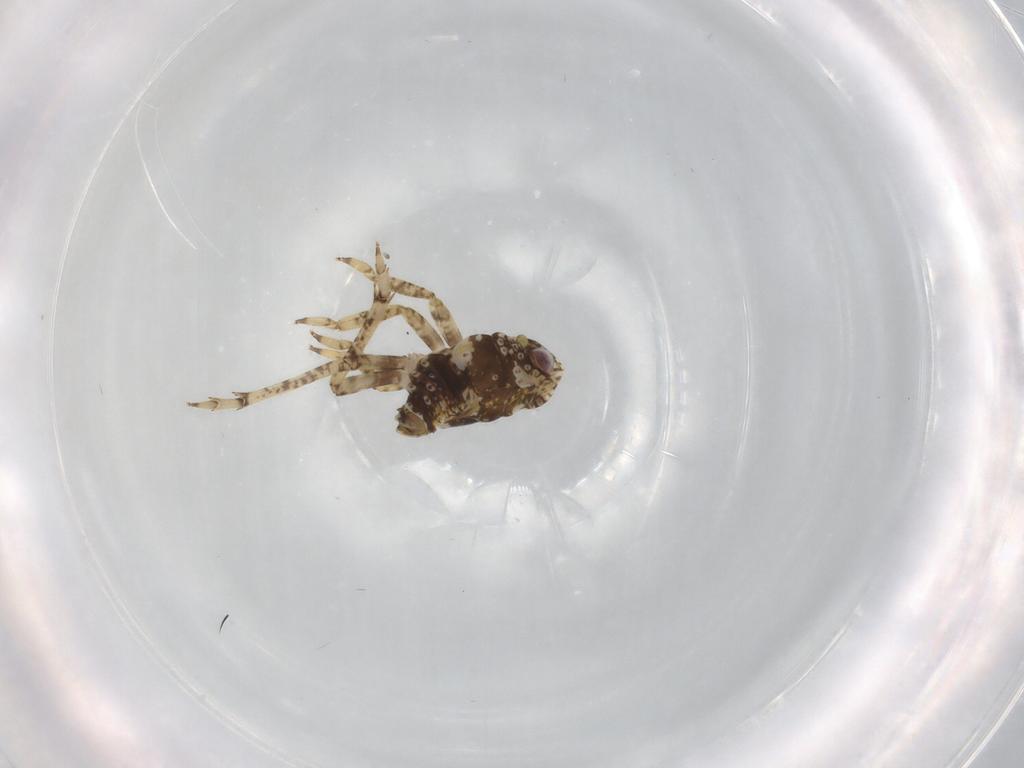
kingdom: Animalia
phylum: Arthropoda
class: Insecta
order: Hemiptera
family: Issidae
